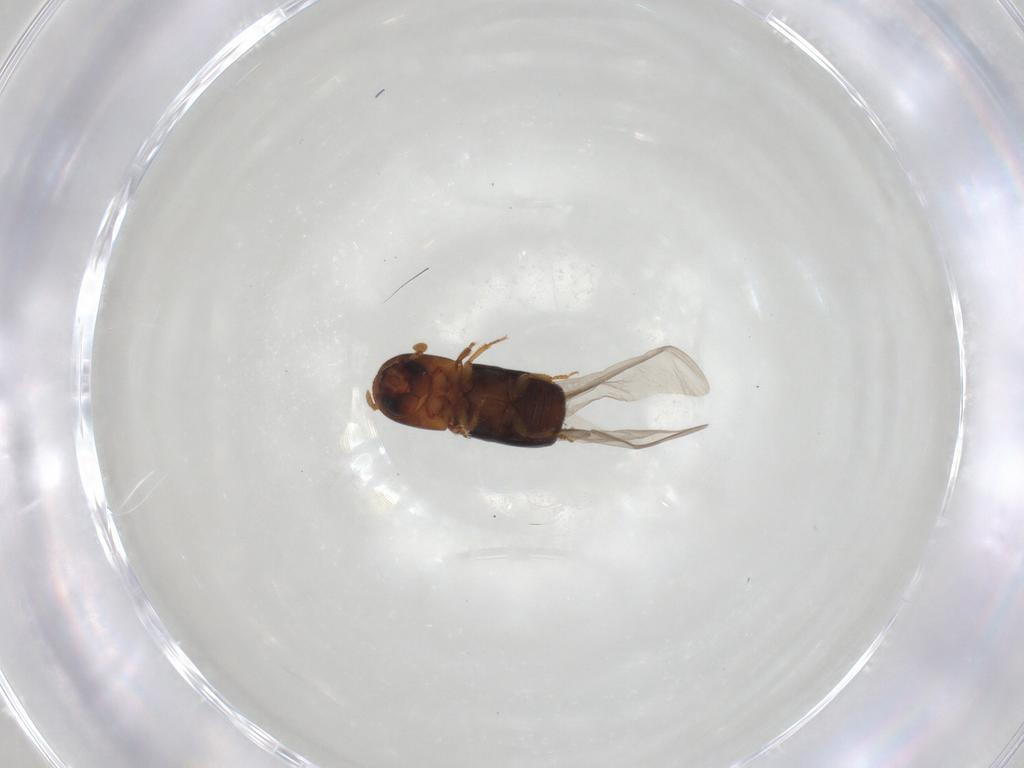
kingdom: Animalia
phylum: Arthropoda
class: Insecta
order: Coleoptera
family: Curculionidae
